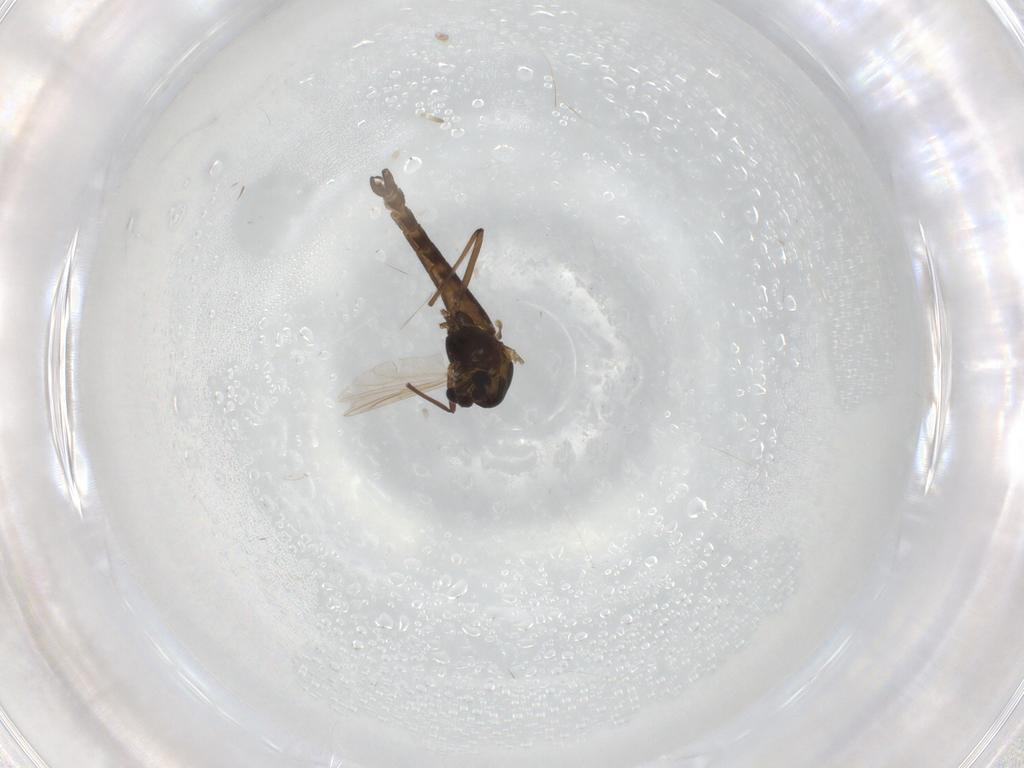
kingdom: Animalia
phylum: Arthropoda
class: Insecta
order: Diptera
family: Chironomidae
